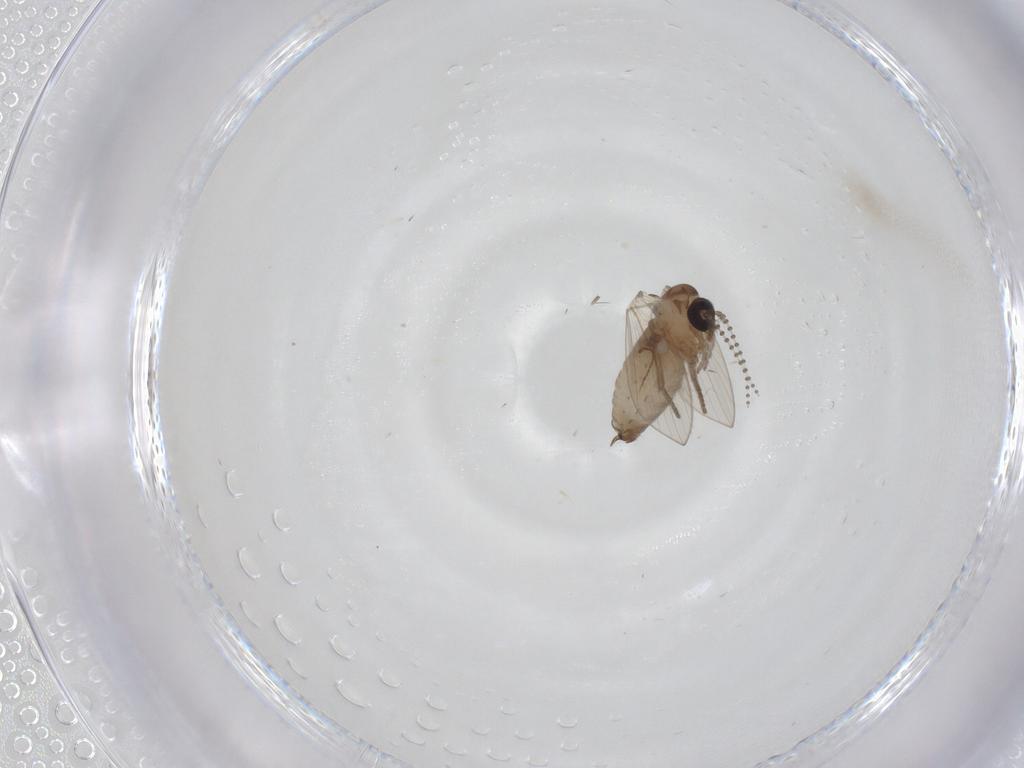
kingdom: Animalia
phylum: Arthropoda
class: Insecta
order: Diptera
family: Psychodidae
